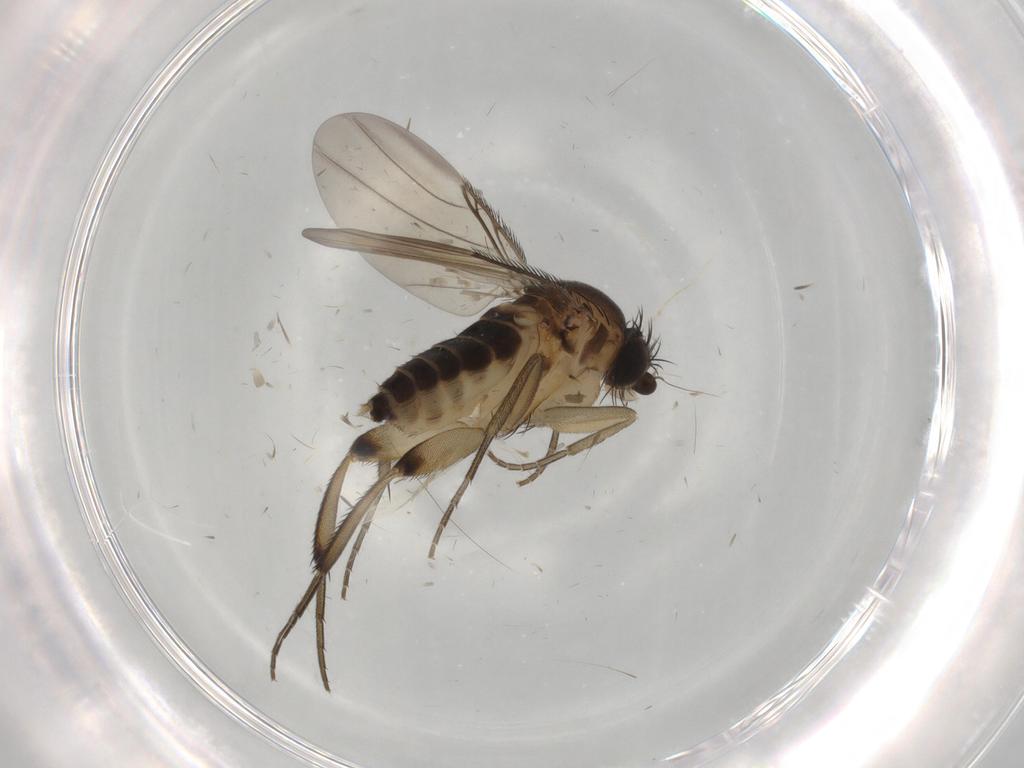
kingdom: Animalia
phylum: Arthropoda
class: Insecta
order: Diptera
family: Phoridae
